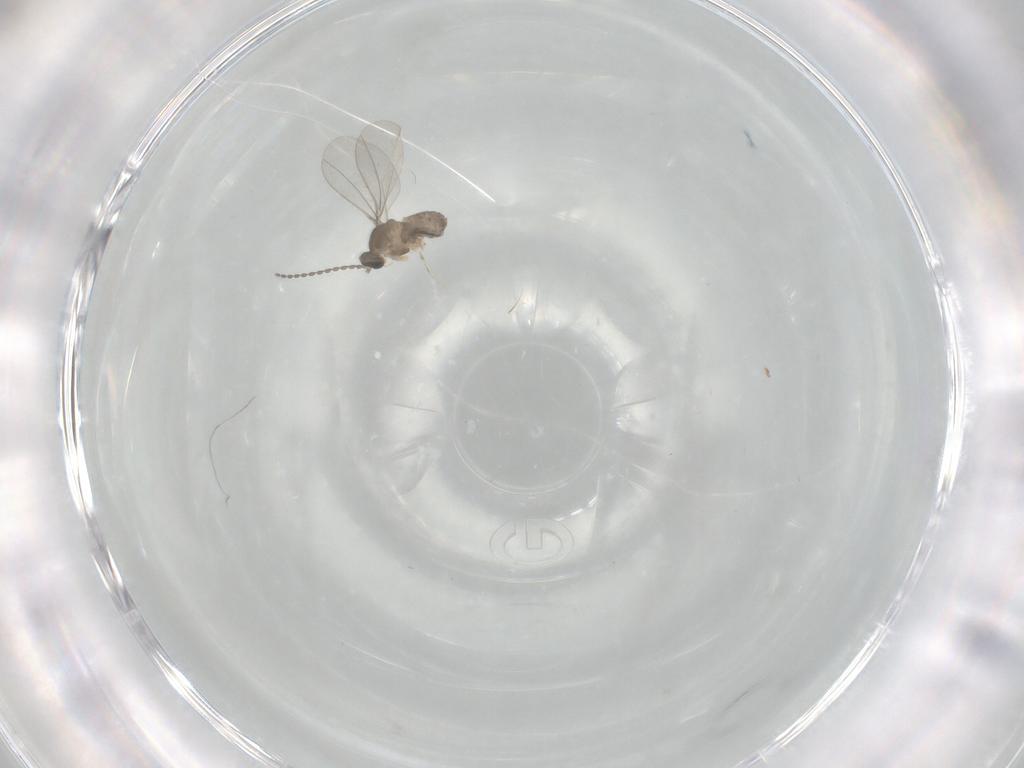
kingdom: Animalia
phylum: Arthropoda
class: Insecta
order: Diptera
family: Cecidomyiidae
